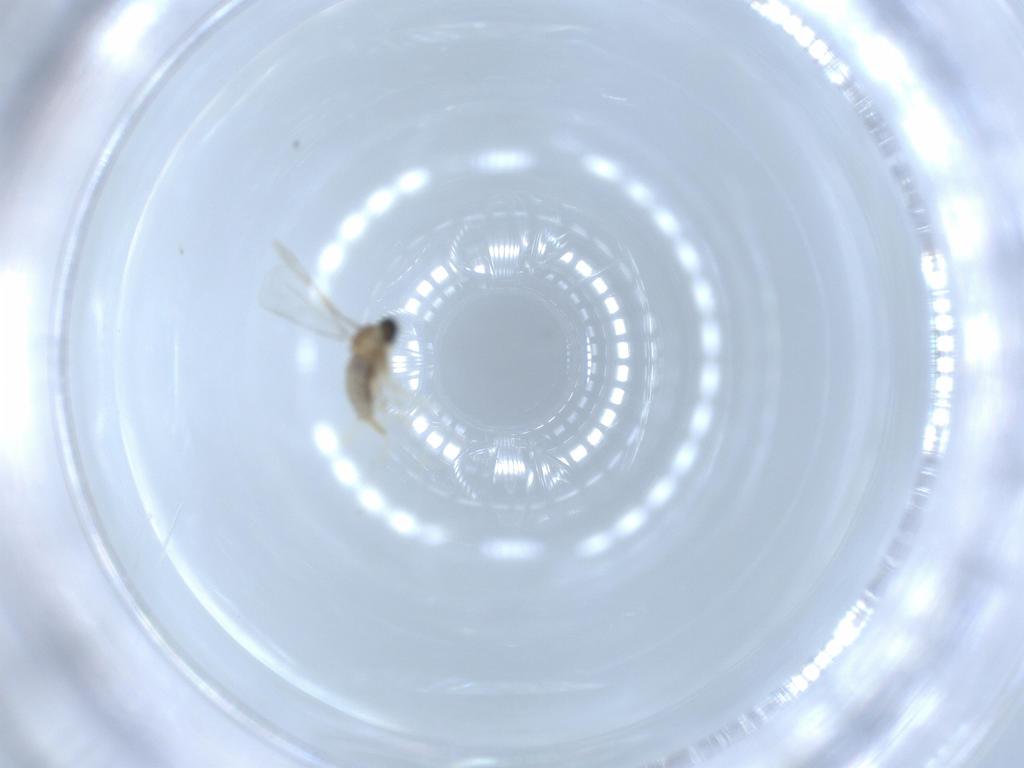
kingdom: Animalia
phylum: Arthropoda
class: Insecta
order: Diptera
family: Cecidomyiidae
